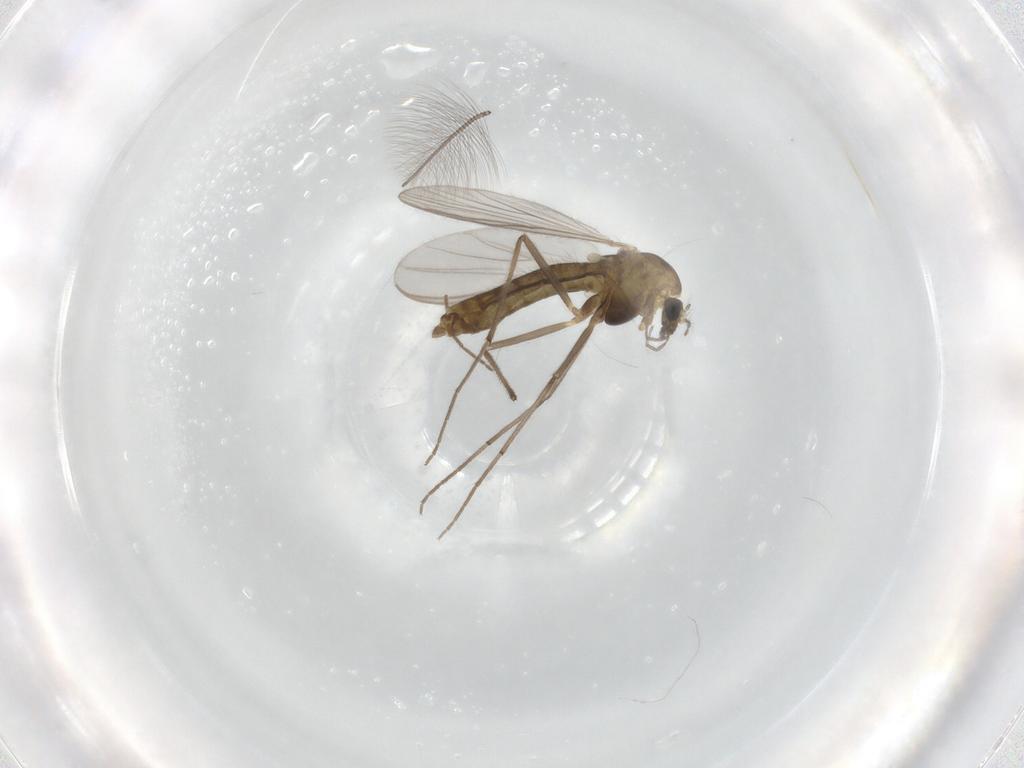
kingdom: Animalia
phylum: Arthropoda
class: Insecta
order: Diptera
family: Chironomidae
